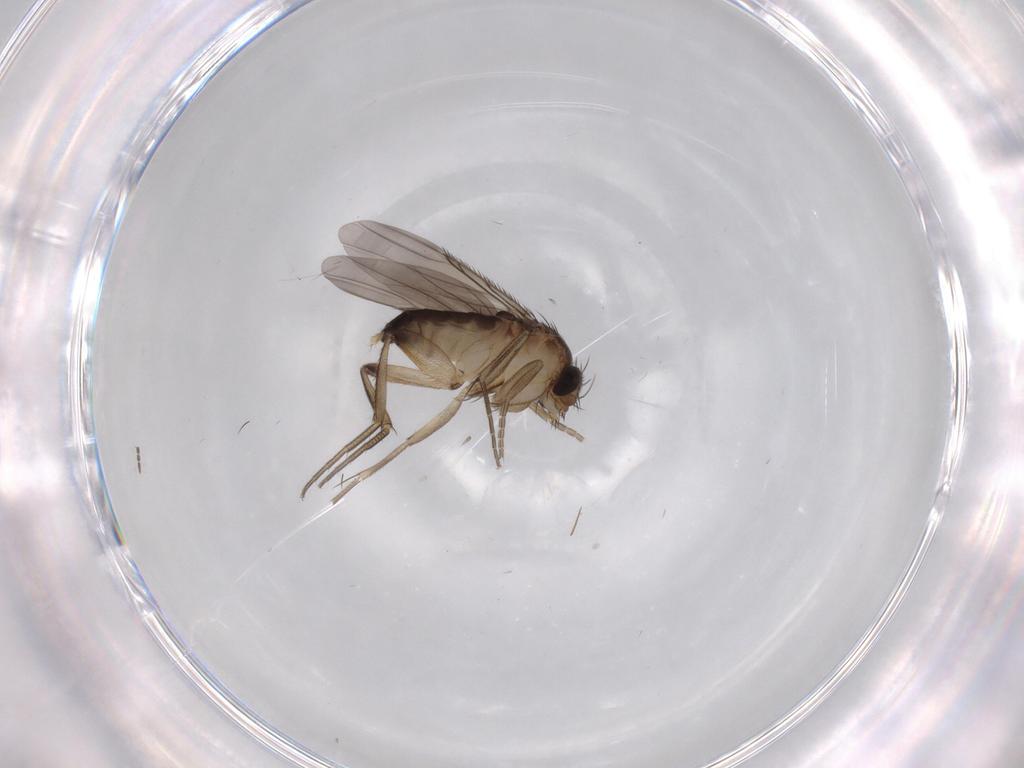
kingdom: Animalia
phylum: Arthropoda
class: Insecta
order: Diptera
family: Phoridae
